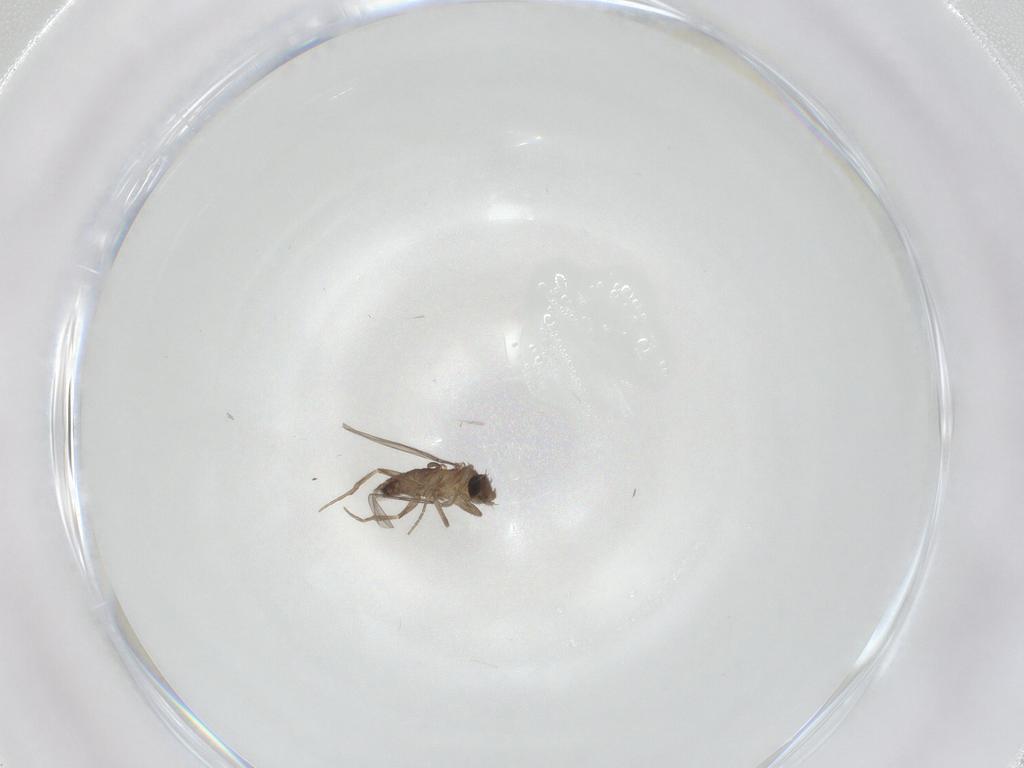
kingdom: Animalia
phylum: Arthropoda
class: Insecta
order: Diptera
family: Phoridae
